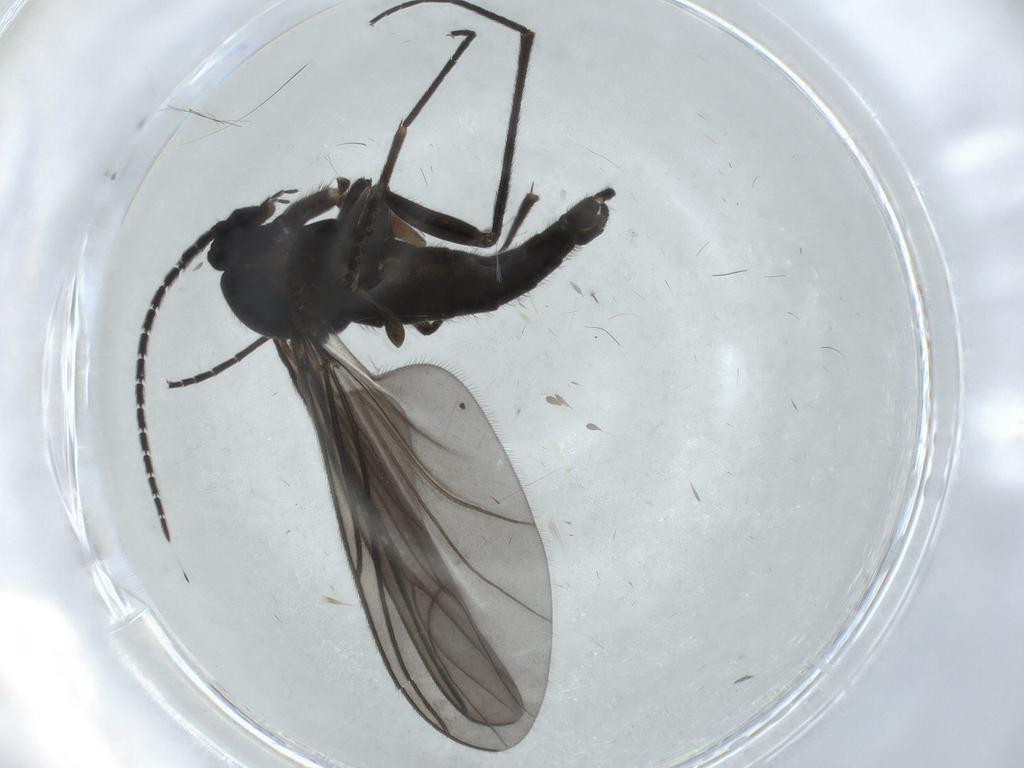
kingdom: Animalia
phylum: Arthropoda
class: Insecta
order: Diptera
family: Sciaridae
